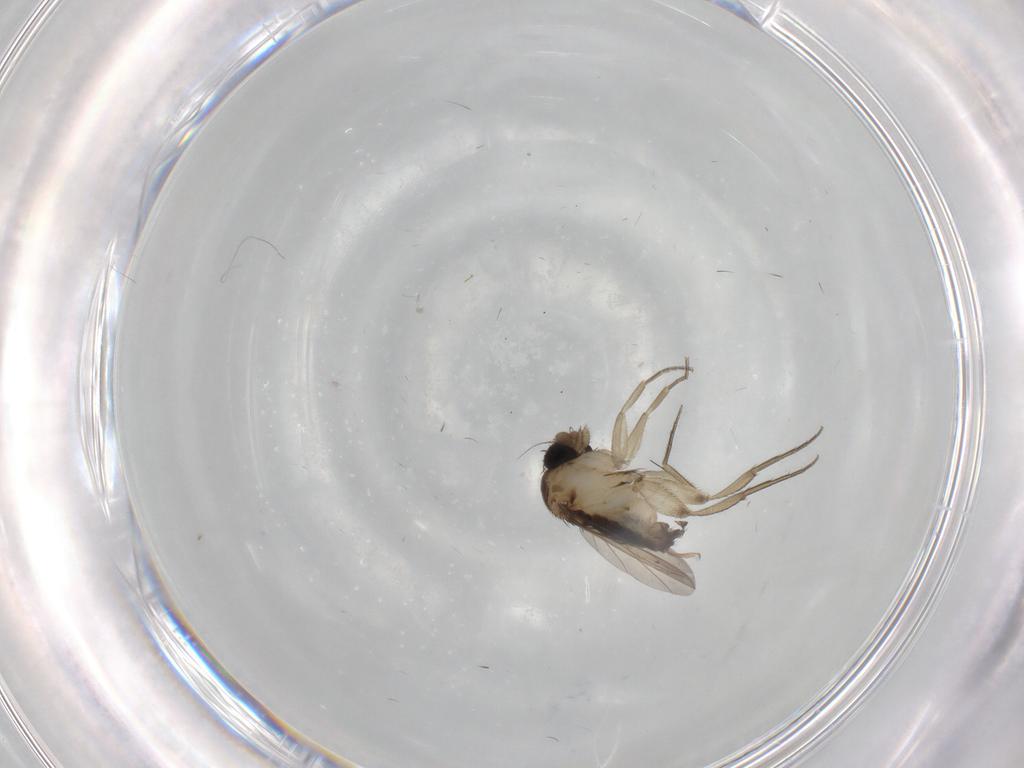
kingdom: Animalia
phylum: Arthropoda
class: Insecta
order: Diptera
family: Phoridae
